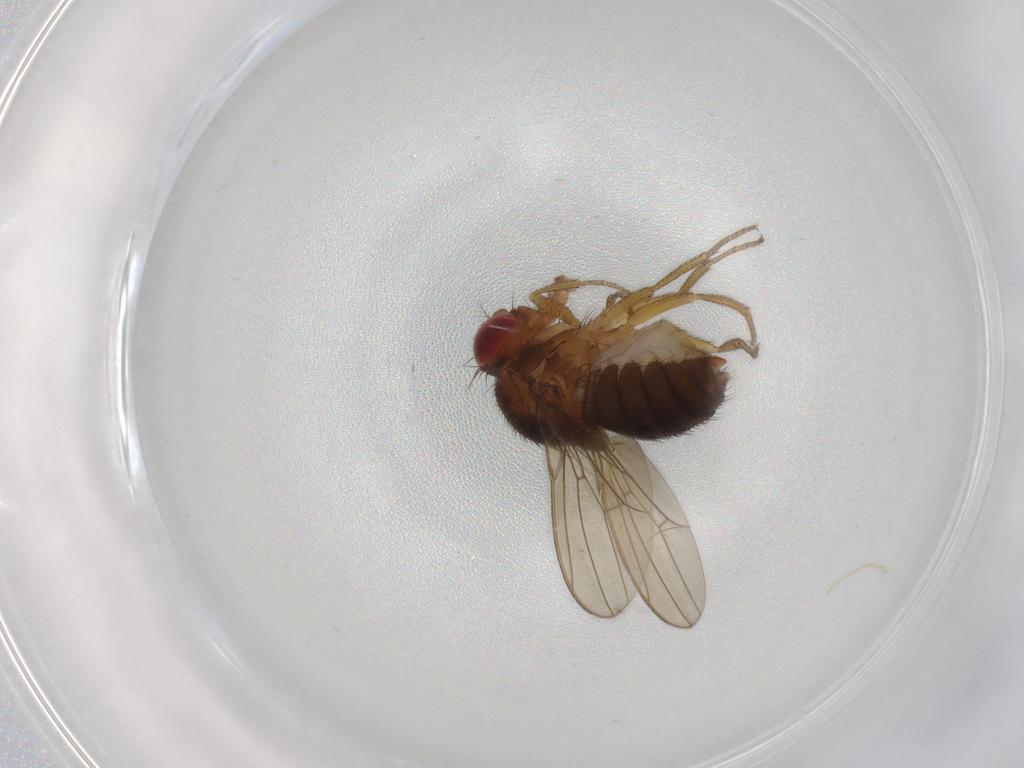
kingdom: Animalia
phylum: Arthropoda
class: Insecta
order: Diptera
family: Drosophilidae
